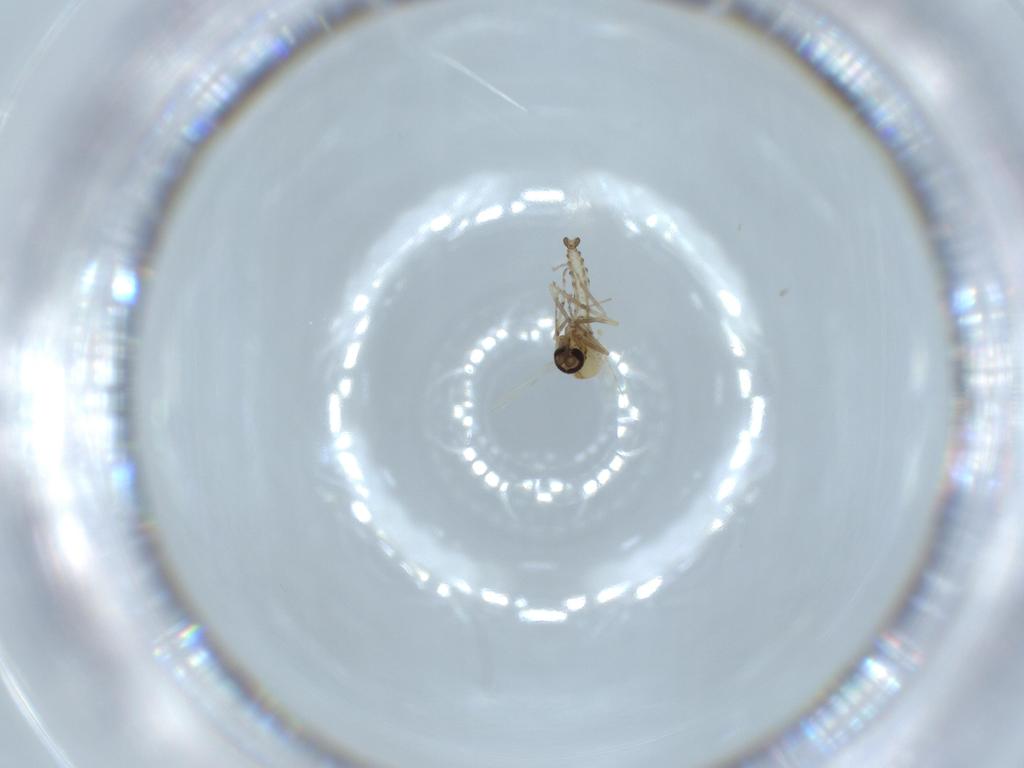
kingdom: Animalia
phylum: Arthropoda
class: Insecta
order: Diptera
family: Ceratopogonidae
